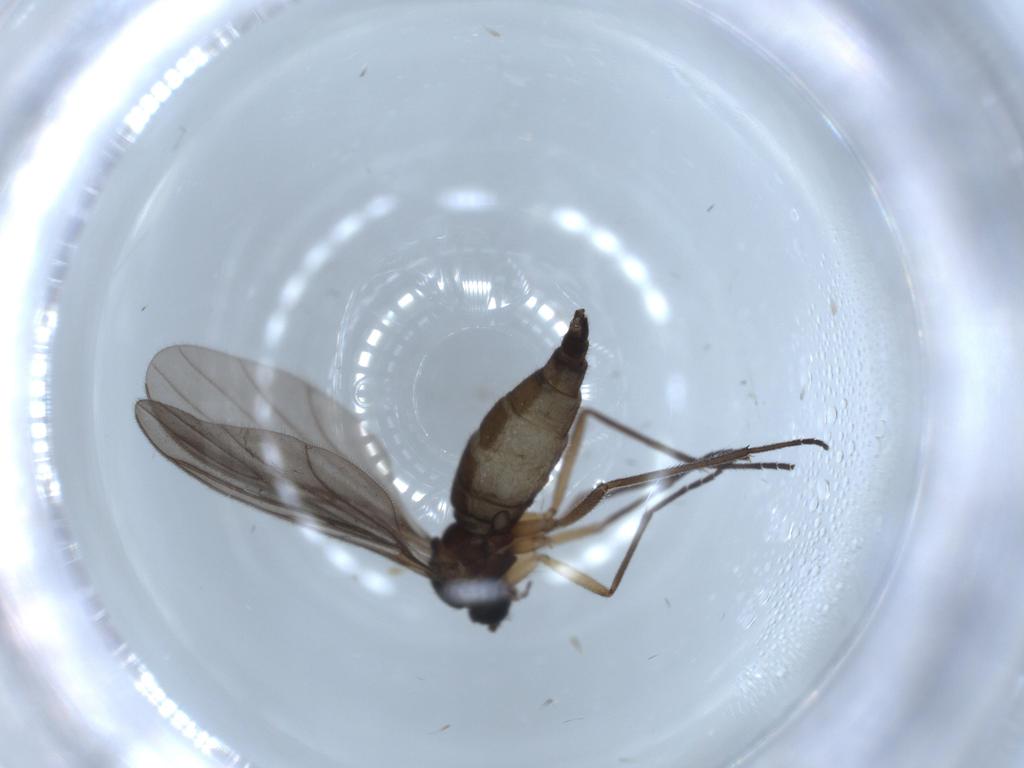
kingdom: Animalia
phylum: Arthropoda
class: Insecta
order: Diptera
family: Sciaridae
